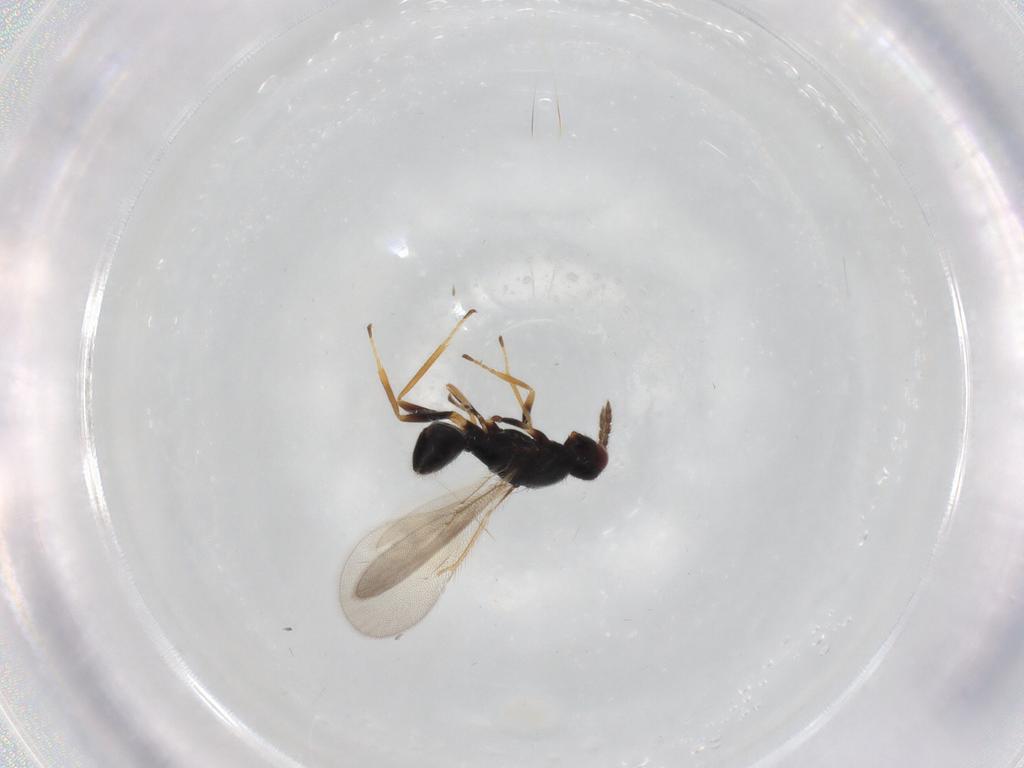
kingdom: Animalia
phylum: Arthropoda
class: Insecta
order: Hymenoptera
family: Eulophidae
